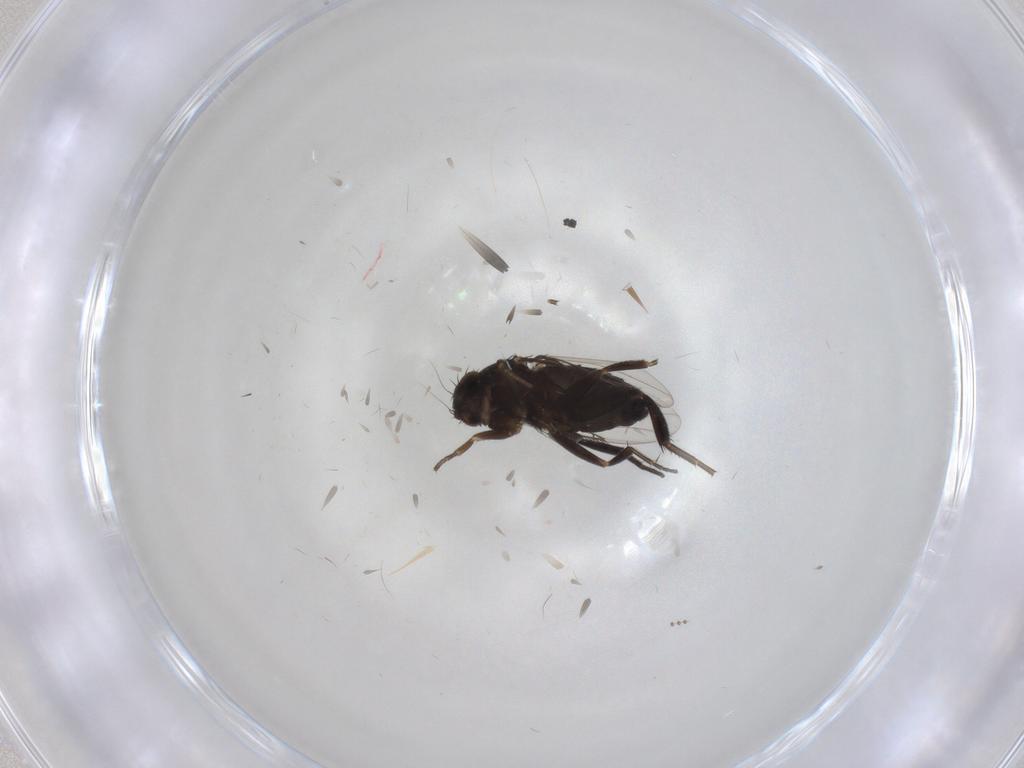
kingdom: Animalia
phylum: Arthropoda
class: Insecta
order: Diptera
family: Phoridae
